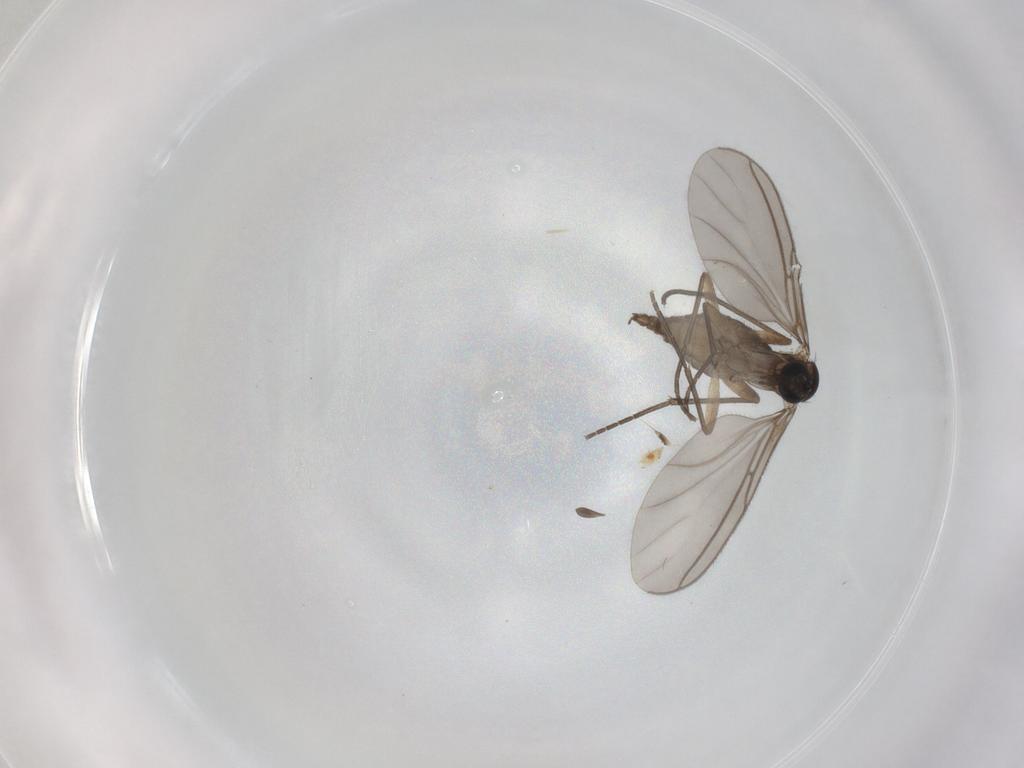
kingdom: Animalia
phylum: Arthropoda
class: Insecta
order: Diptera
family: Sciaridae
